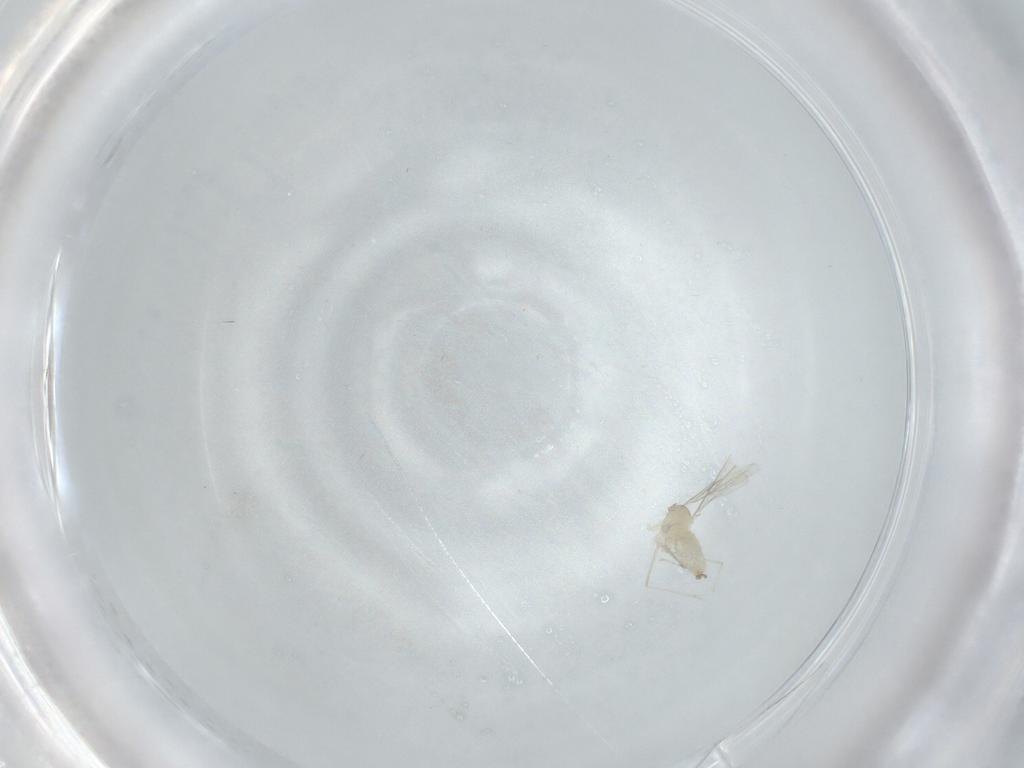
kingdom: Animalia
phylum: Arthropoda
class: Insecta
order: Diptera
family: Cecidomyiidae
